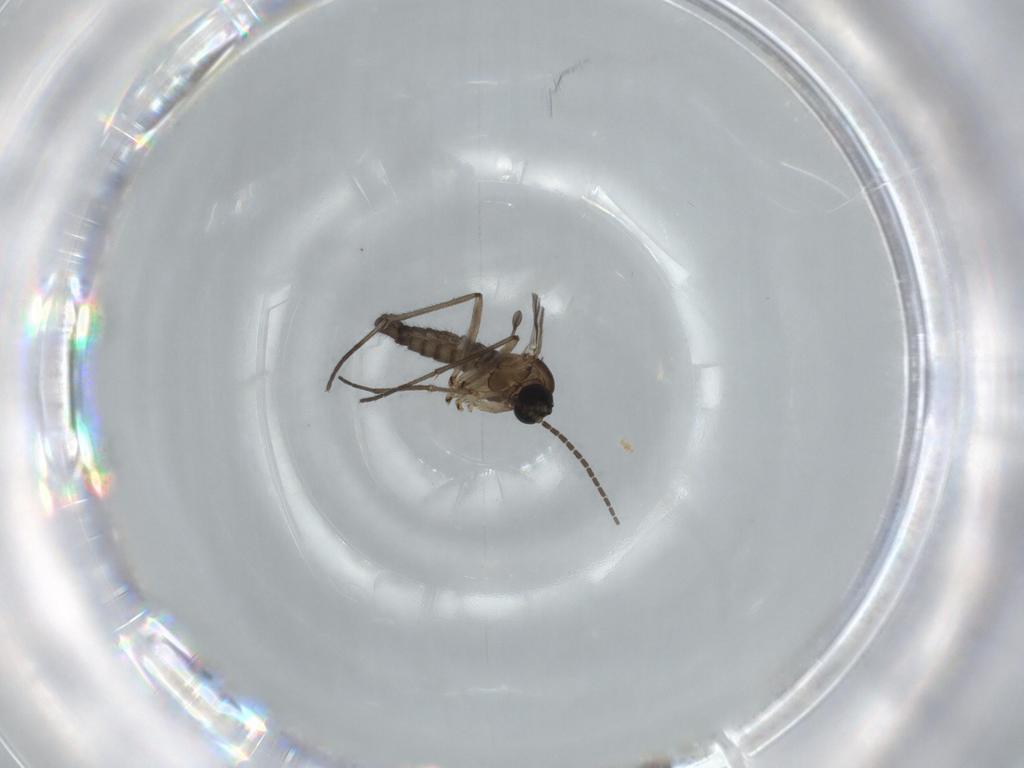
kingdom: Animalia
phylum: Arthropoda
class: Insecta
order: Diptera
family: Sciaridae
